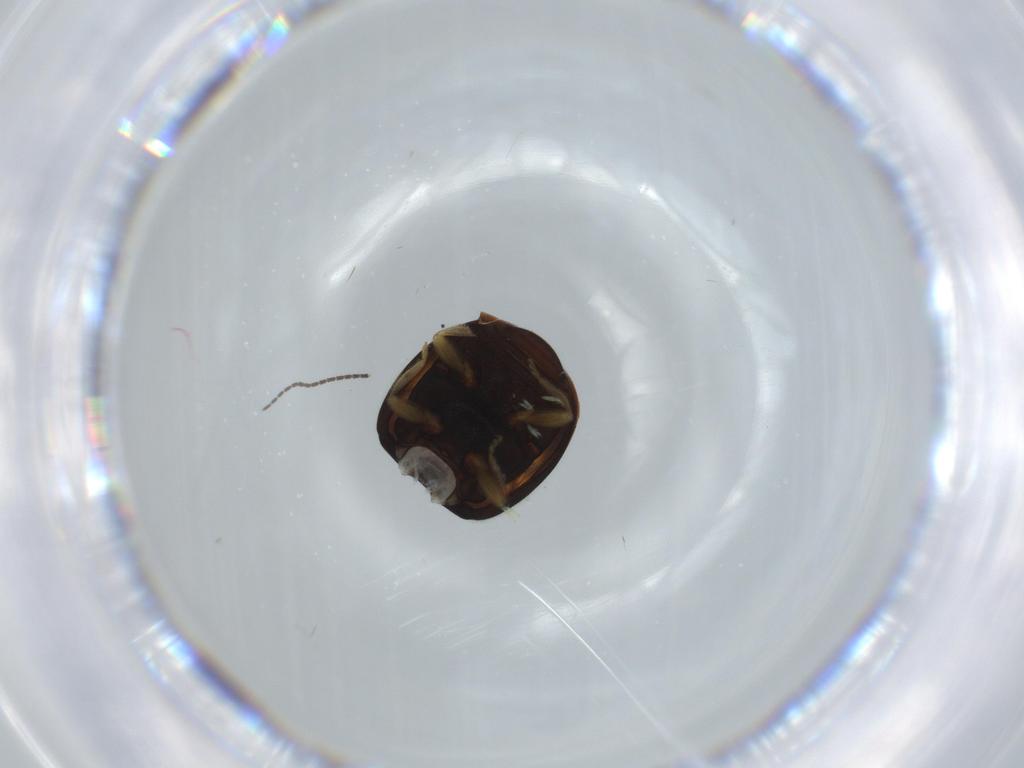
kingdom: Animalia
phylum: Arthropoda
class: Insecta
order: Coleoptera
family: Coccinellidae
